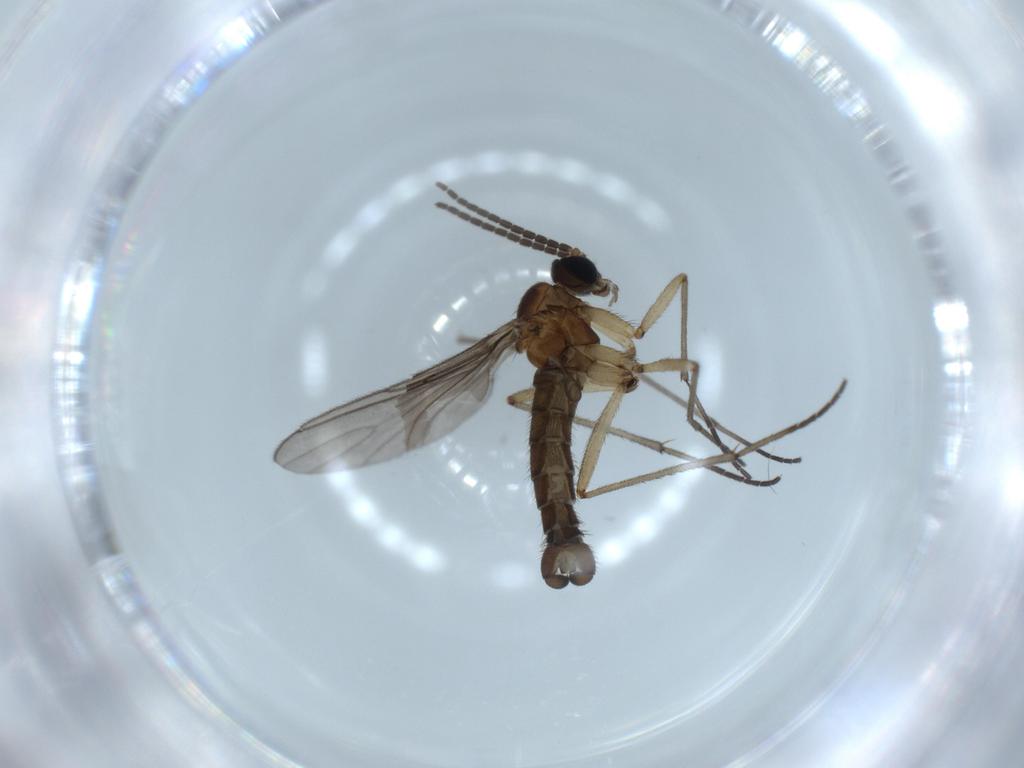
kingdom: Animalia
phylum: Arthropoda
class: Insecta
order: Diptera
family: Sciaridae
